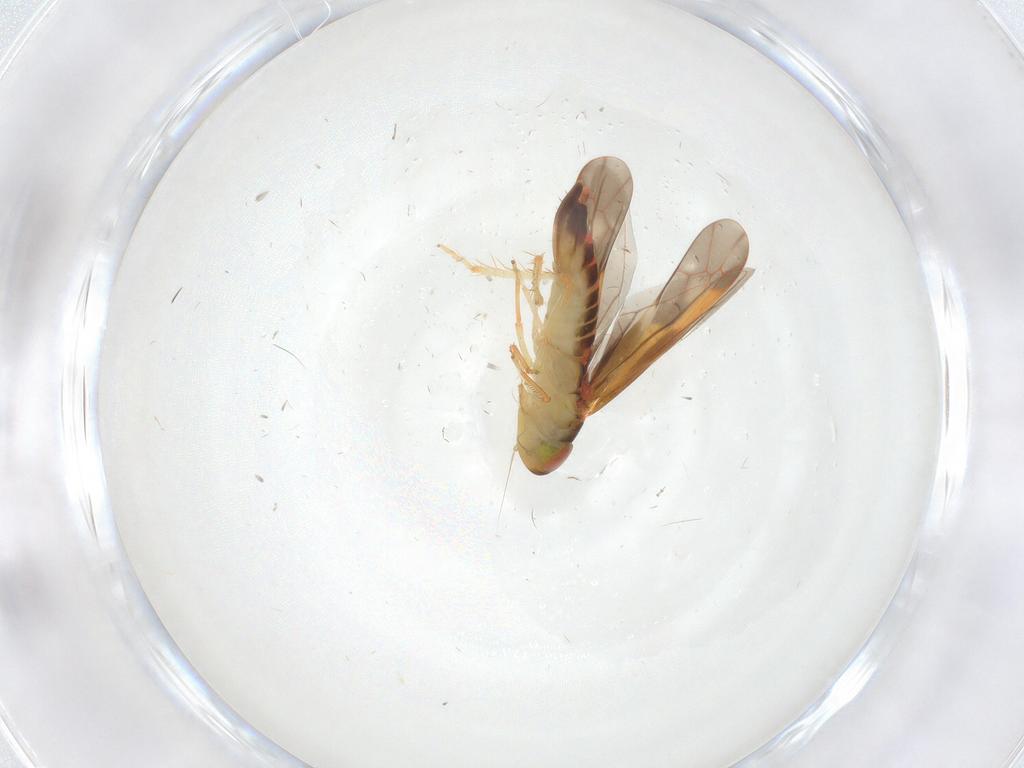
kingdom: Animalia
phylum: Arthropoda
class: Insecta
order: Hemiptera
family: Cicadellidae
